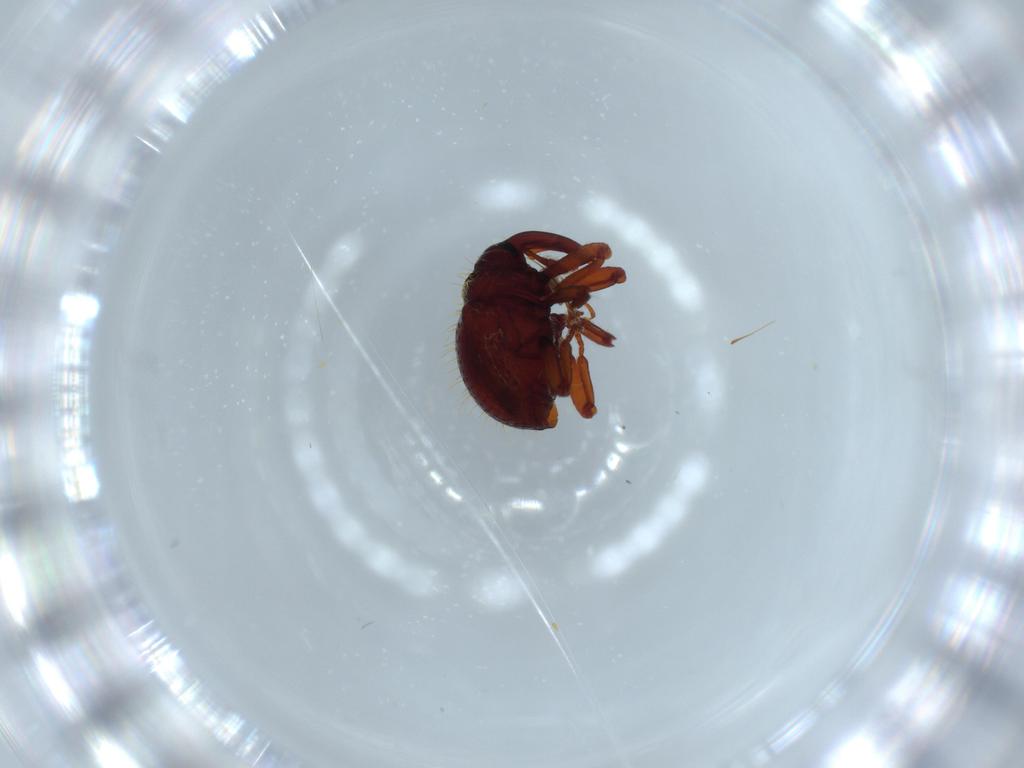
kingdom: Animalia
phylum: Arthropoda
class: Insecta
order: Coleoptera
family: Curculionidae
